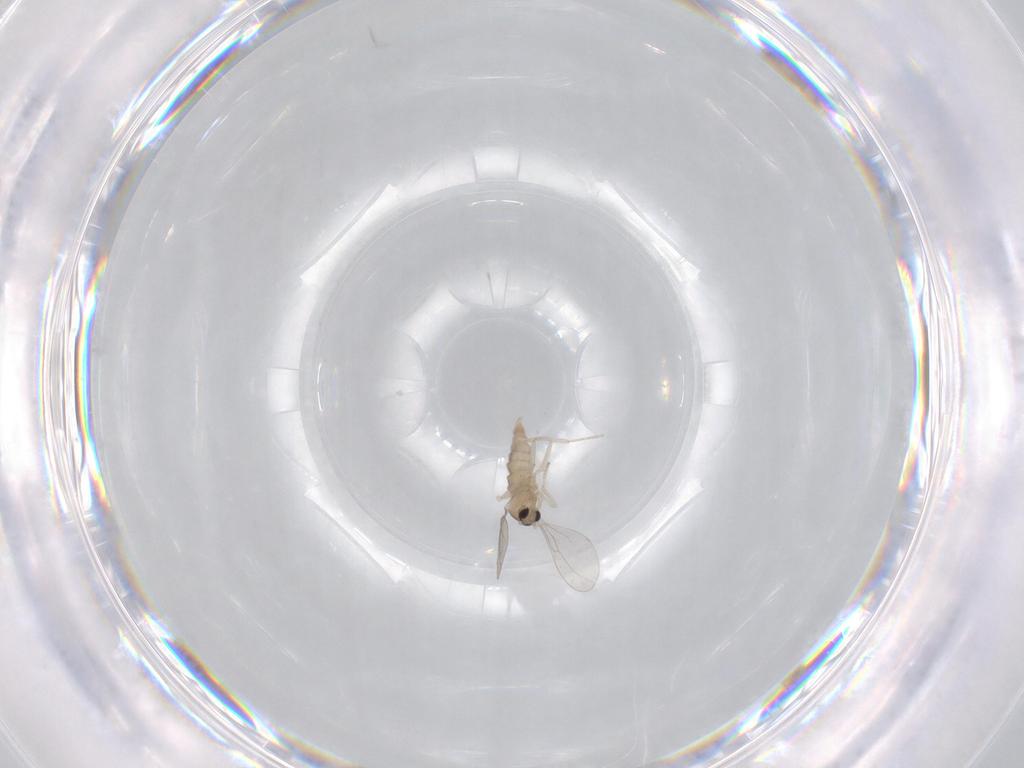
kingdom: Animalia
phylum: Arthropoda
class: Insecta
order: Diptera
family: Cecidomyiidae
